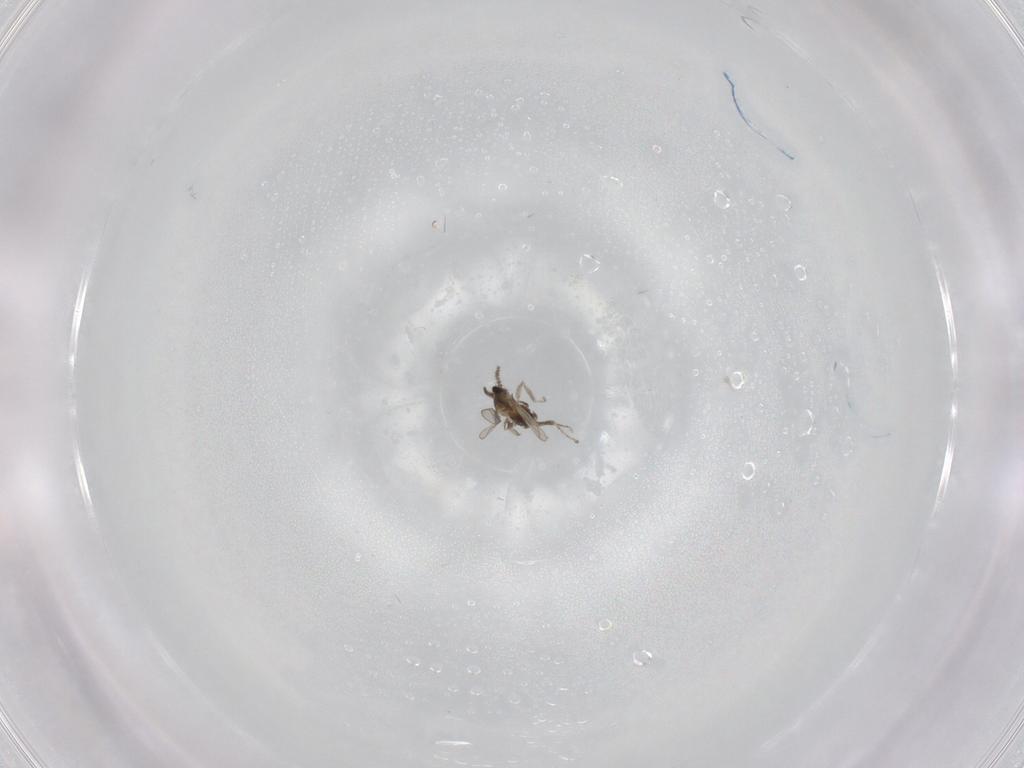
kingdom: Animalia
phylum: Arthropoda
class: Insecta
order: Diptera
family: Cecidomyiidae
